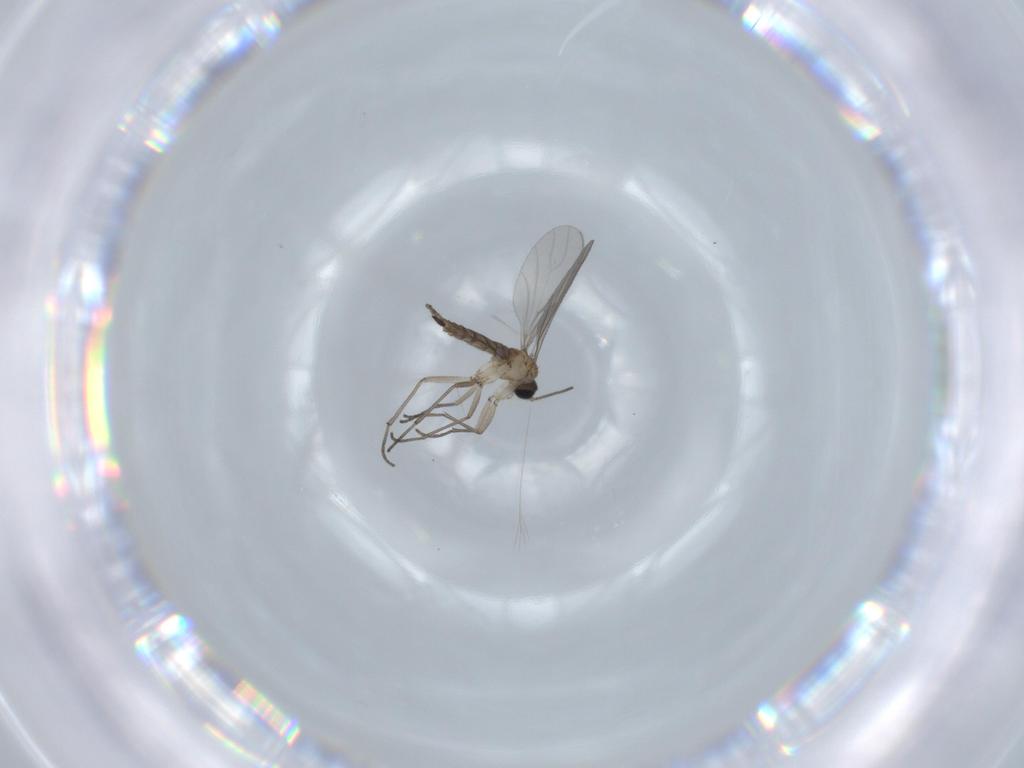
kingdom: Animalia
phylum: Arthropoda
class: Insecta
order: Diptera
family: Sciaridae
